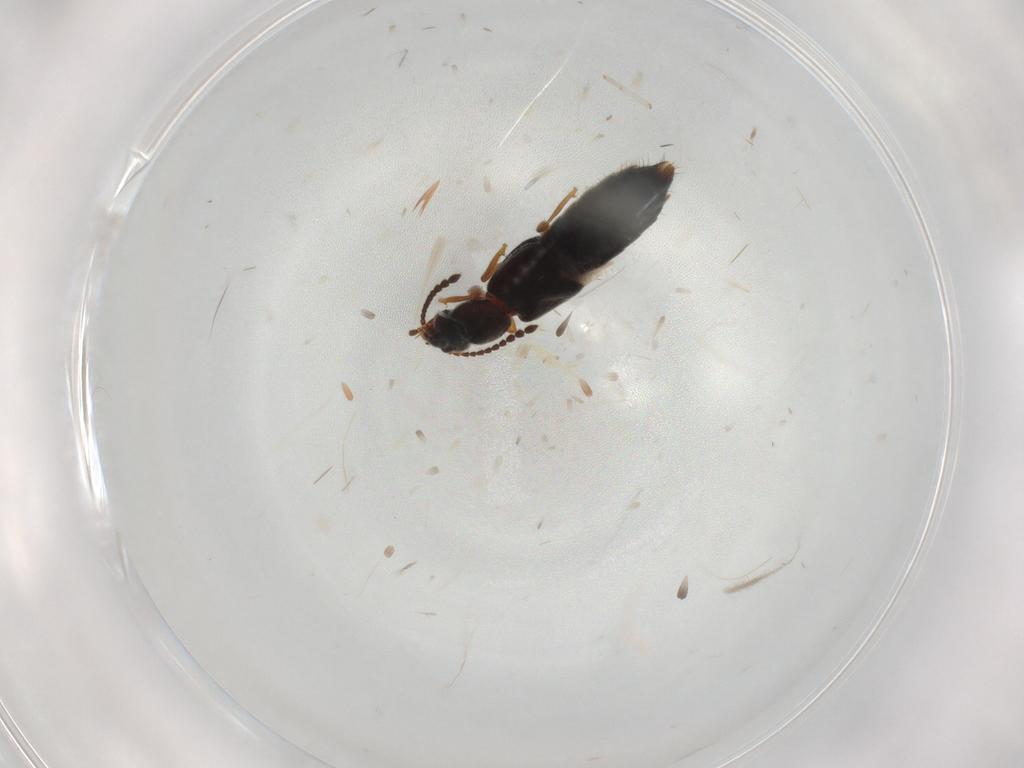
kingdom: Animalia
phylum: Arthropoda
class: Insecta
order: Coleoptera
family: Staphylinidae
